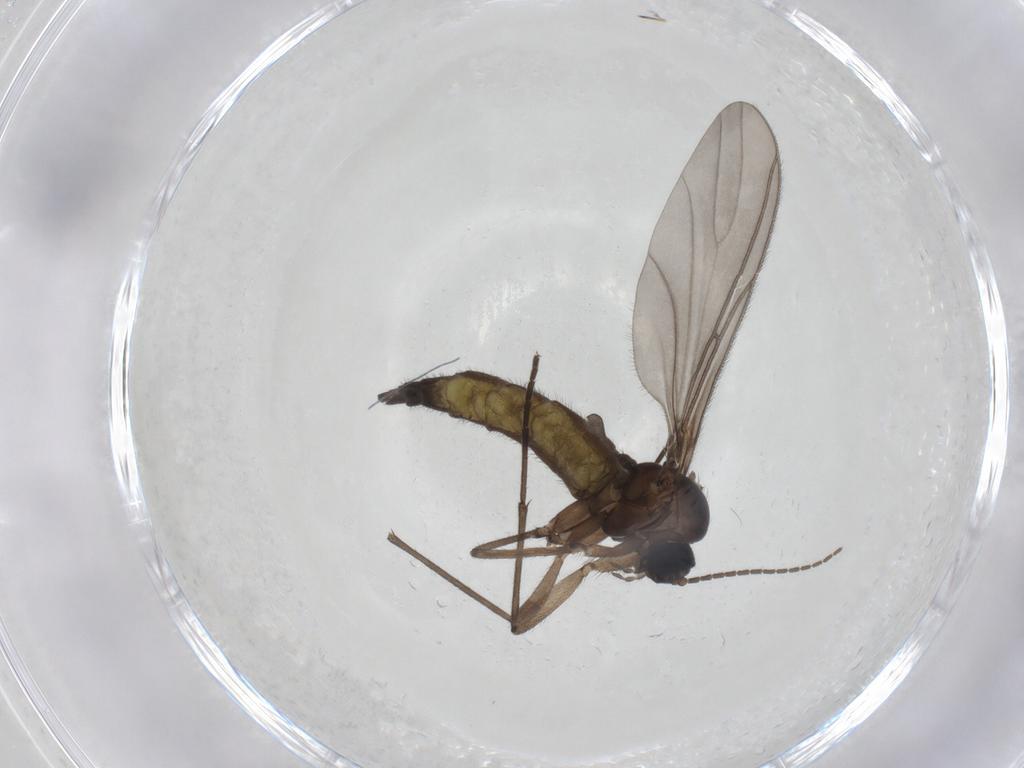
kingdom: Animalia
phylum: Arthropoda
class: Insecta
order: Diptera
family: Sciaridae
